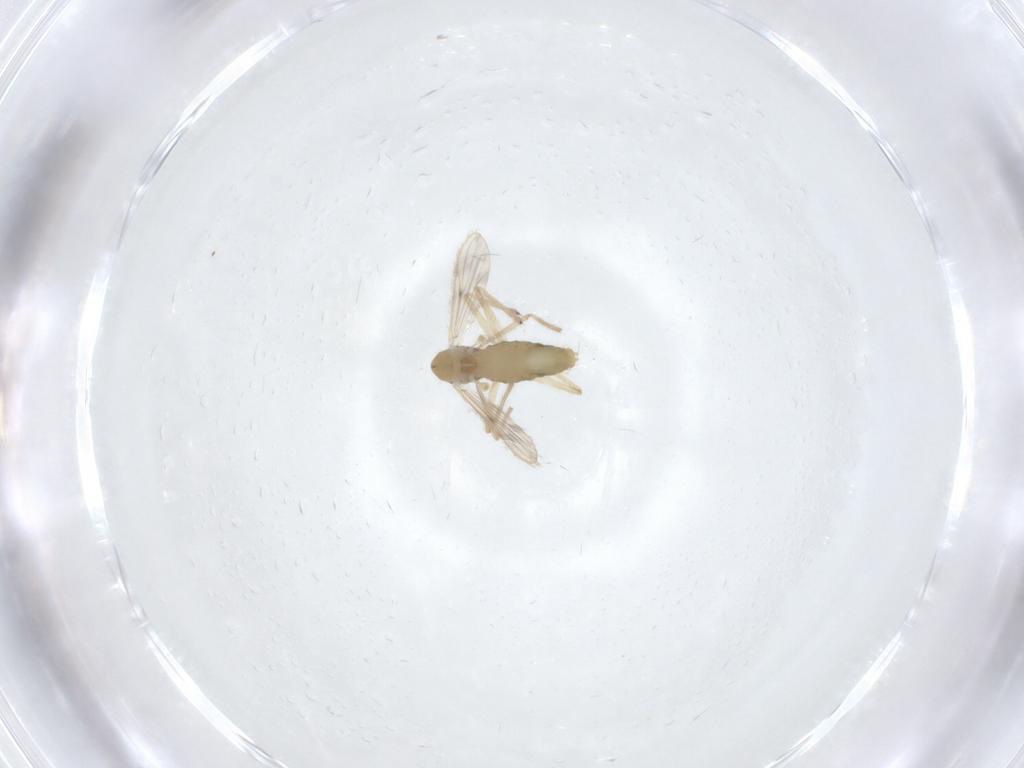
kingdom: Animalia
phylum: Arthropoda
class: Insecta
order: Diptera
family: Chironomidae
